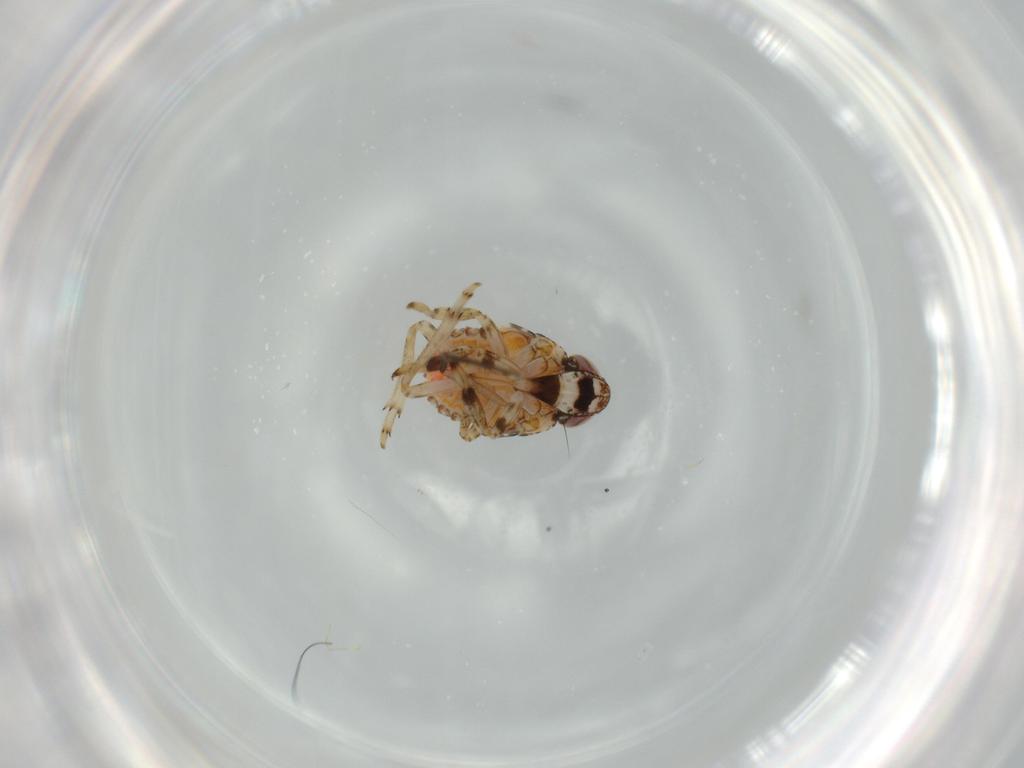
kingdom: Animalia
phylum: Arthropoda
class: Insecta
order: Hemiptera
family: Issidae
